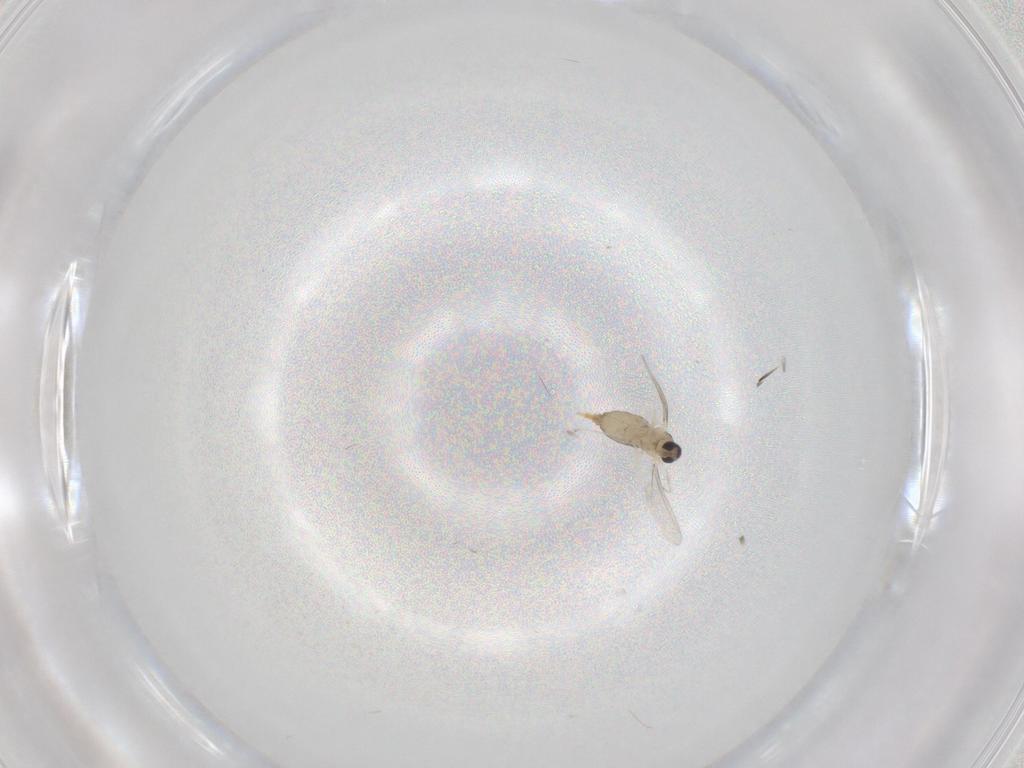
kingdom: Animalia
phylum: Arthropoda
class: Insecta
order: Diptera
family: Cecidomyiidae
